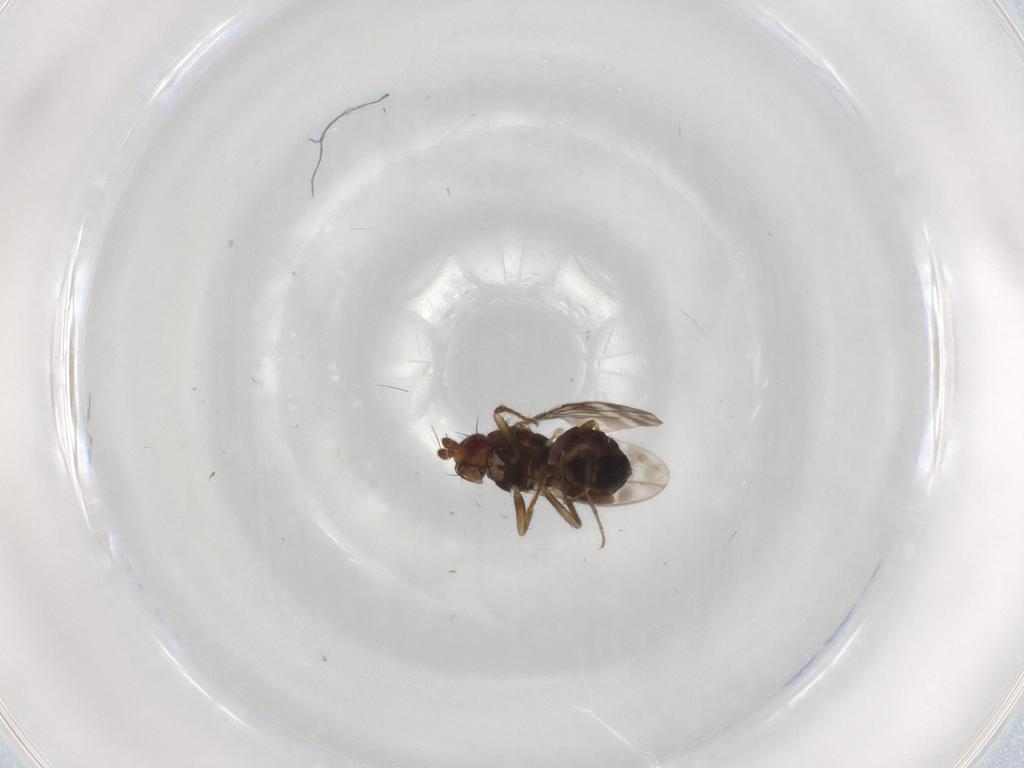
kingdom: Animalia
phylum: Arthropoda
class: Insecta
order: Diptera
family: Sphaeroceridae
